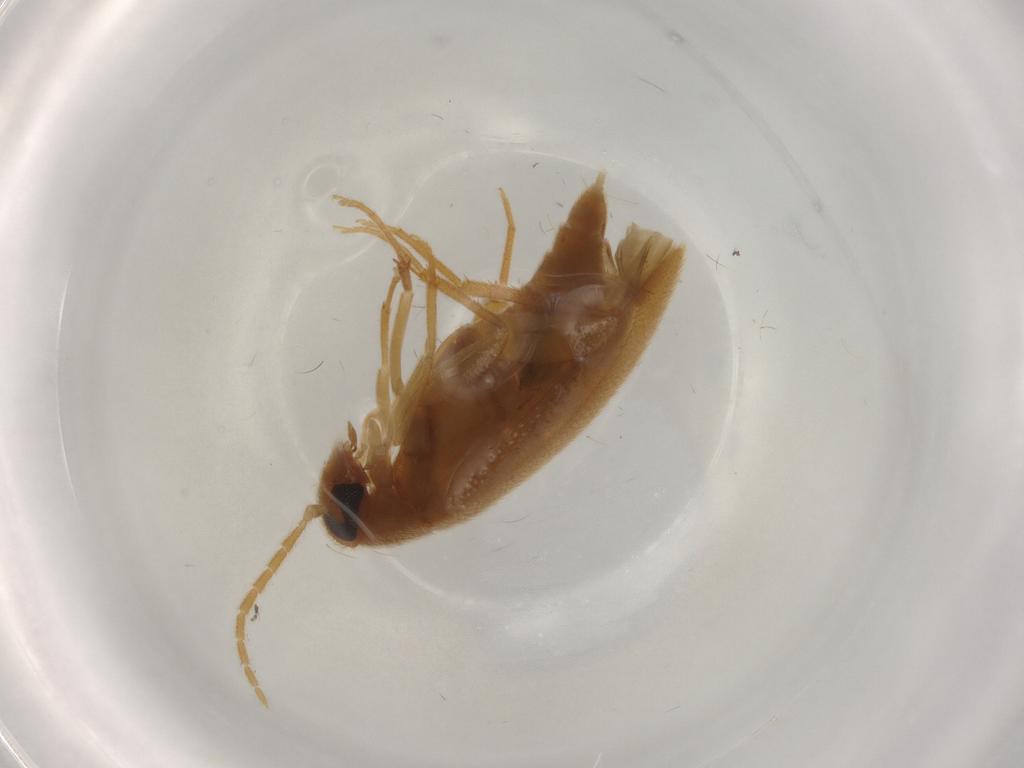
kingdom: Animalia
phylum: Arthropoda
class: Insecta
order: Coleoptera
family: Scraptiidae
